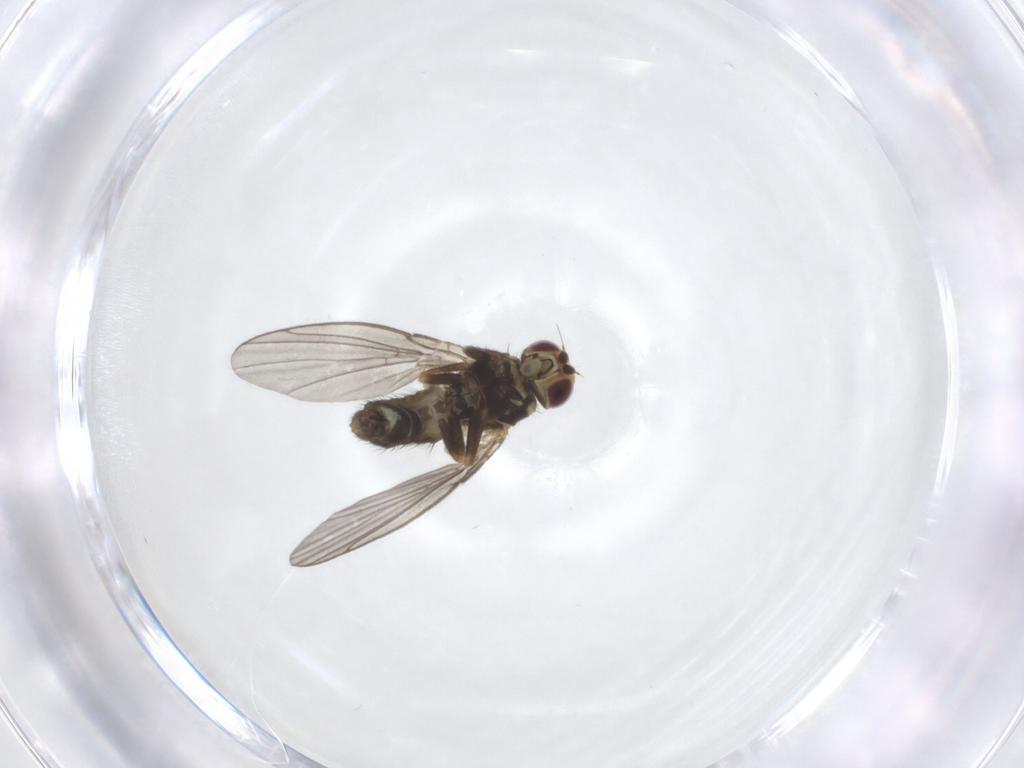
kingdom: Animalia
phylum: Arthropoda
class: Insecta
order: Diptera
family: Agromyzidae
